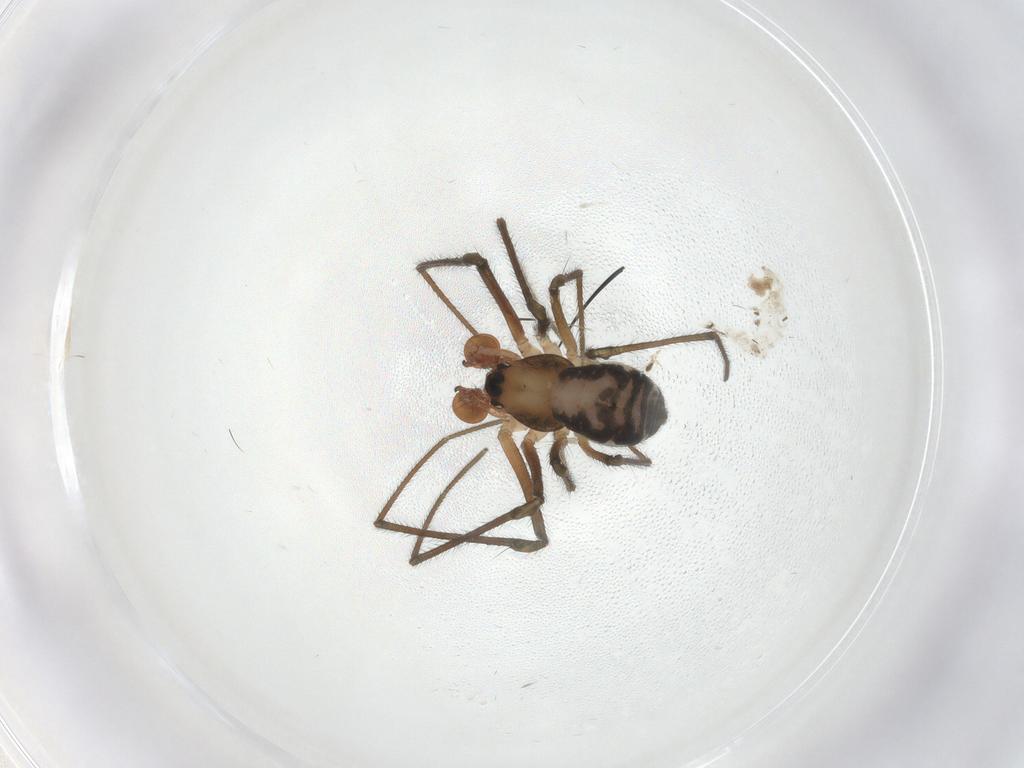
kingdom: Animalia
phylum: Arthropoda
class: Arachnida
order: Araneae
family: Tetragnathidae
